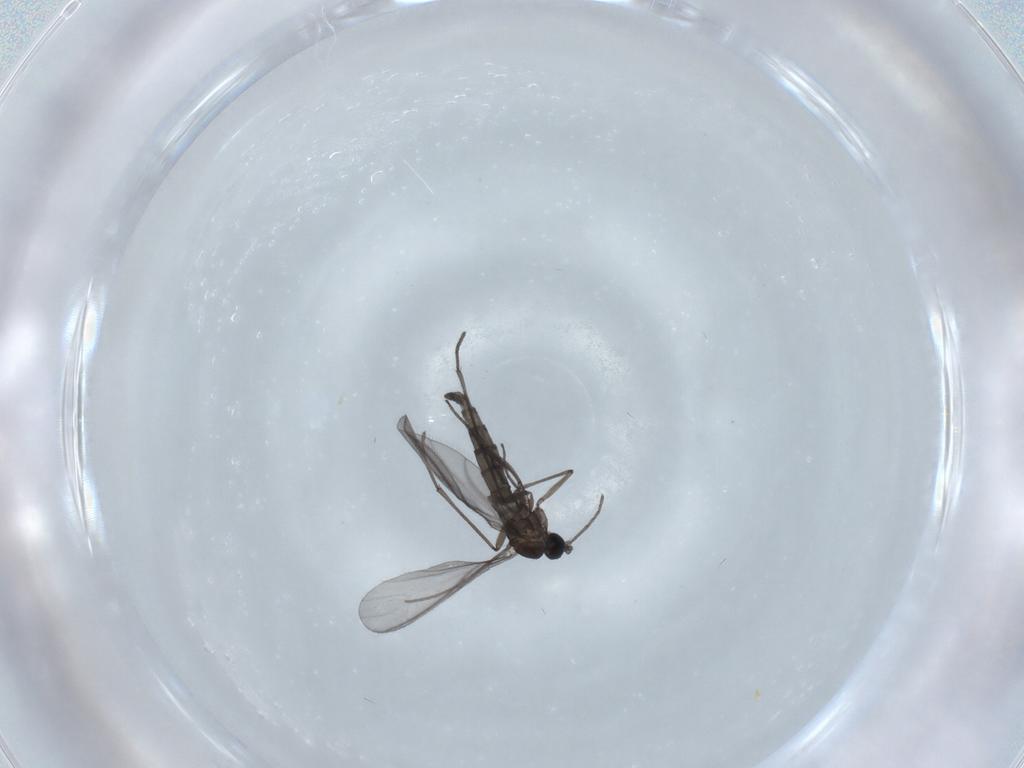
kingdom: Animalia
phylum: Arthropoda
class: Insecta
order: Diptera
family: Sciaridae
